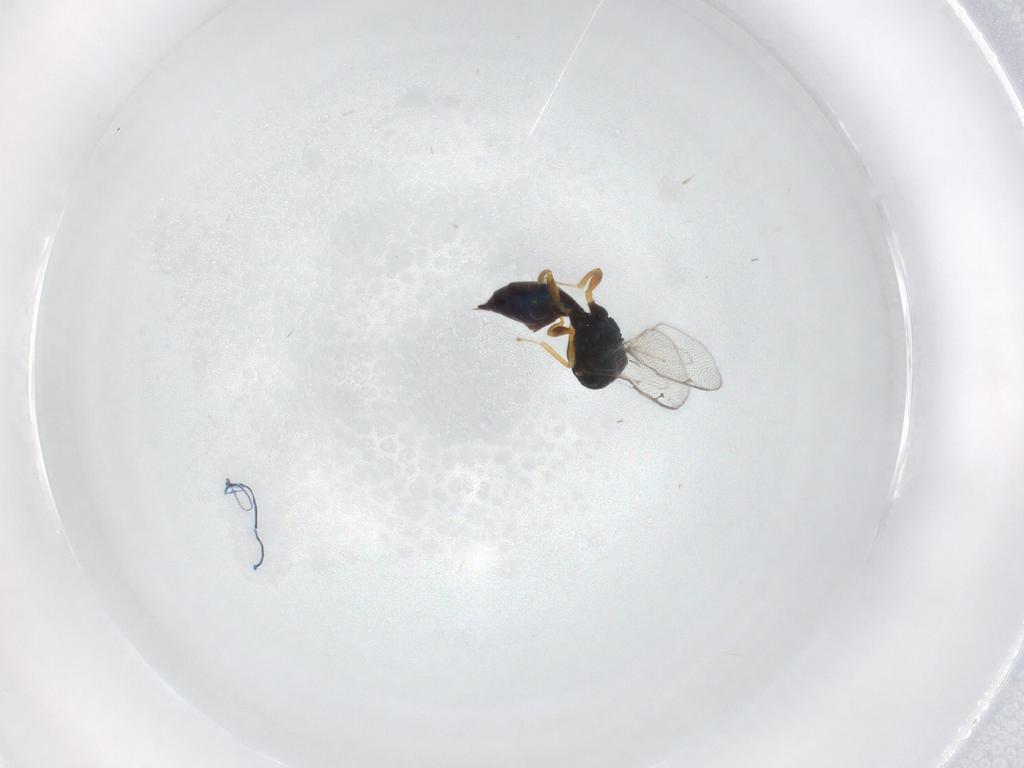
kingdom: Animalia
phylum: Arthropoda
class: Insecta
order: Hymenoptera
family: Pteromalidae
